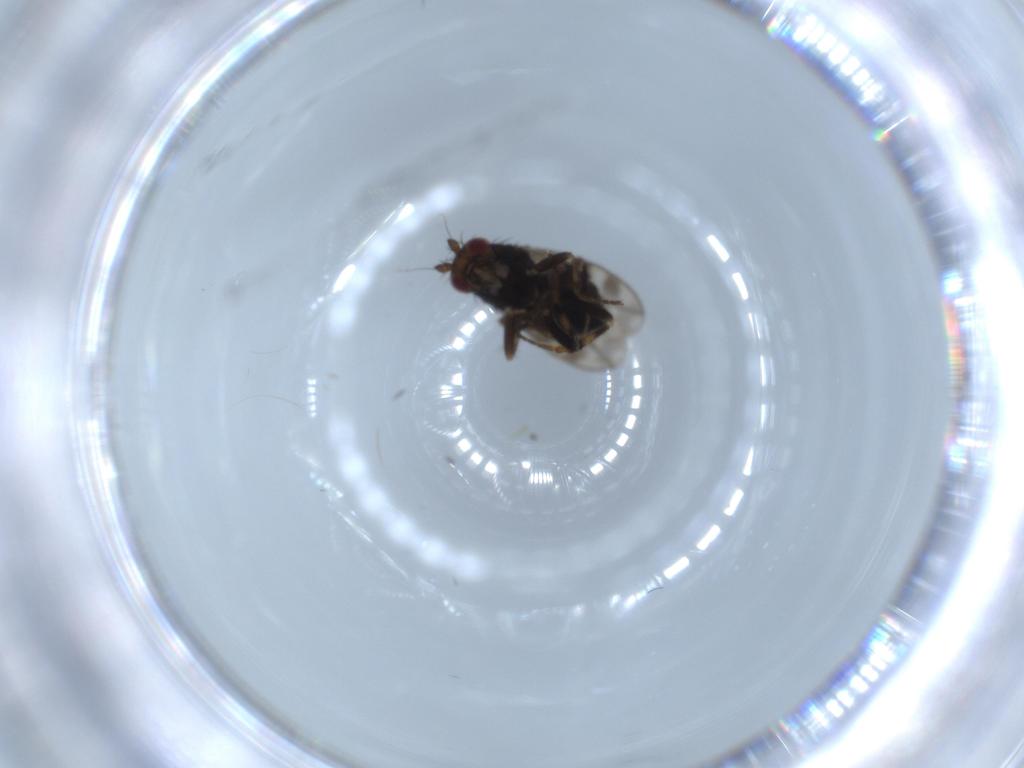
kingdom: Animalia
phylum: Arthropoda
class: Insecta
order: Diptera
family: Sphaeroceridae
